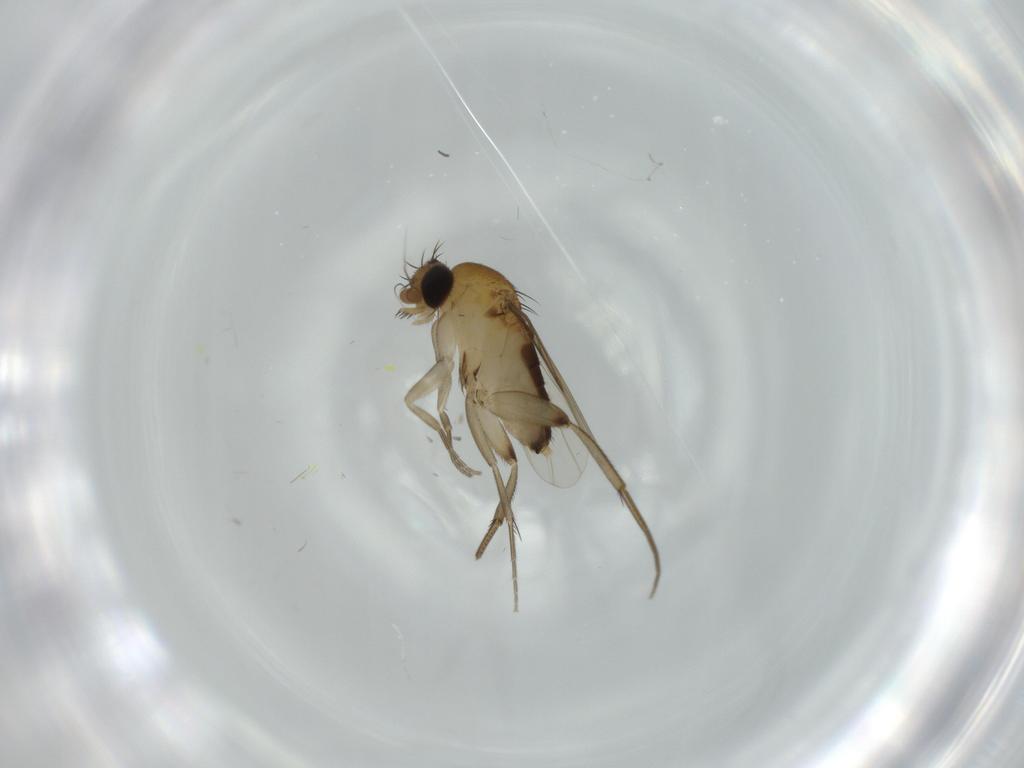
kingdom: Animalia
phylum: Arthropoda
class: Insecta
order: Diptera
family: Phoridae
